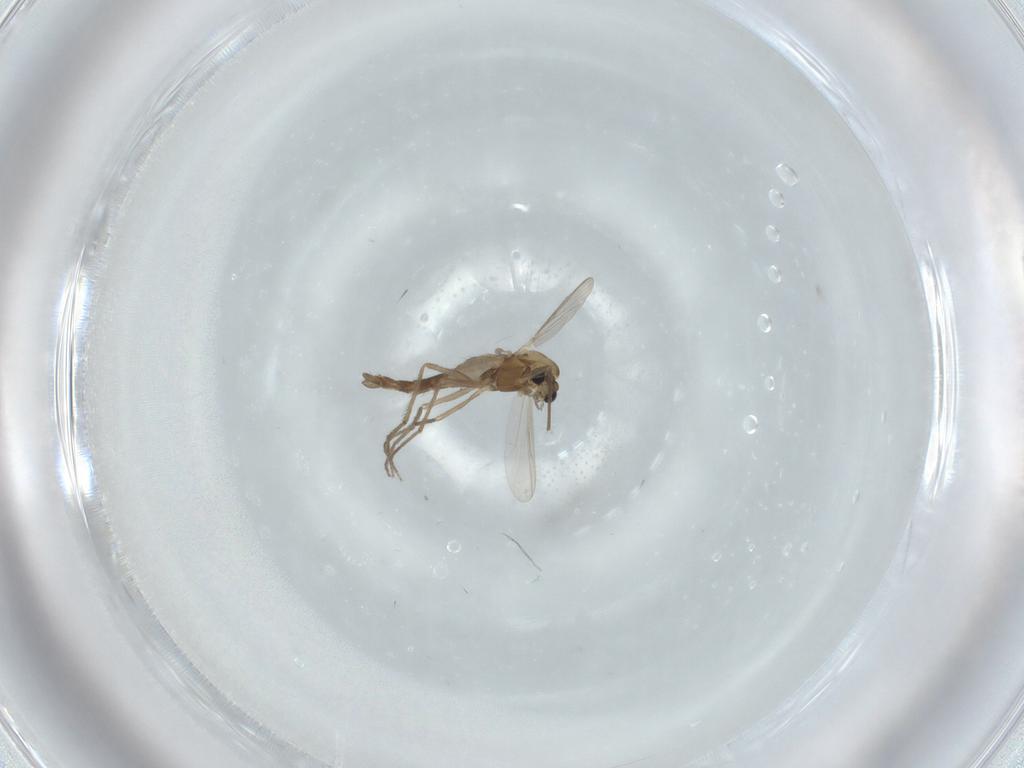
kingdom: Animalia
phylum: Arthropoda
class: Insecta
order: Diptera
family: Chironomidae
